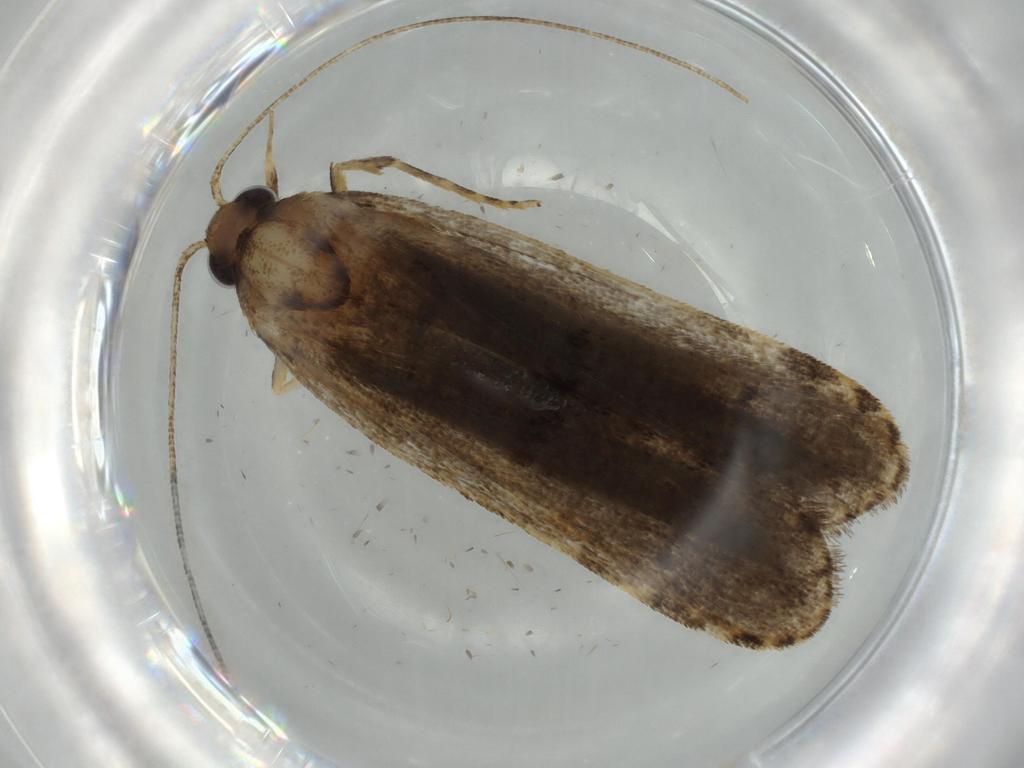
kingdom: Animalia
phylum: Arthropoda
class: Insecta
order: Lepidoptera
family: Autostichidae
